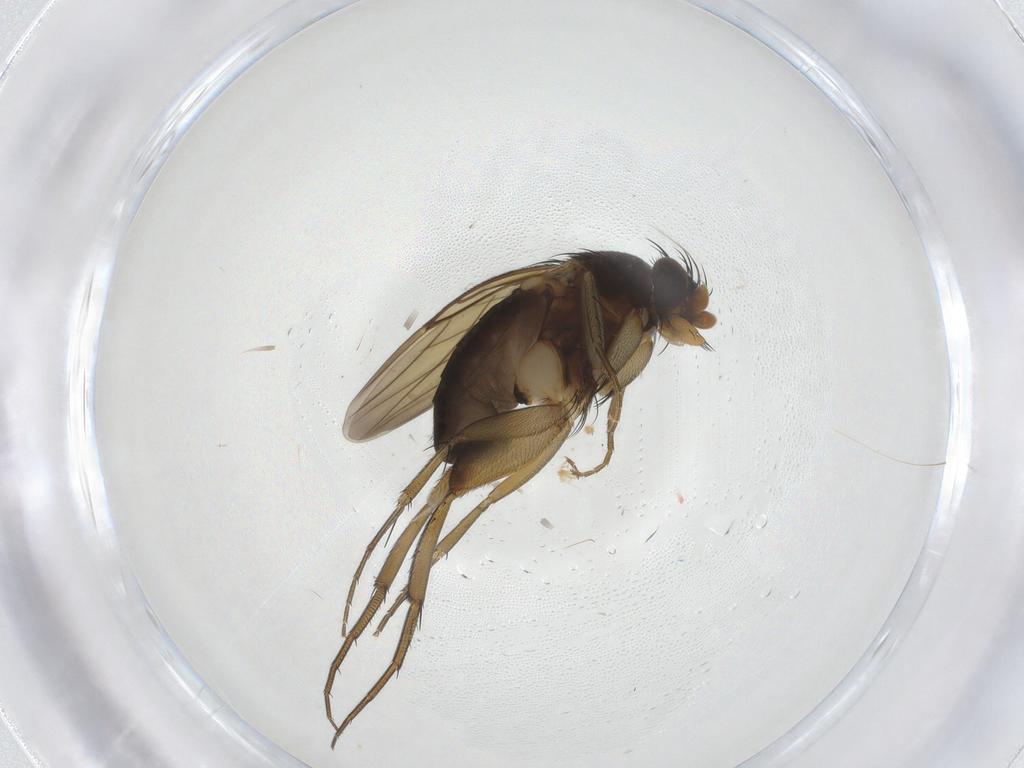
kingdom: Animalia
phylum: Arthropoda
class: Insecta
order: Diptera
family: Phoridae
